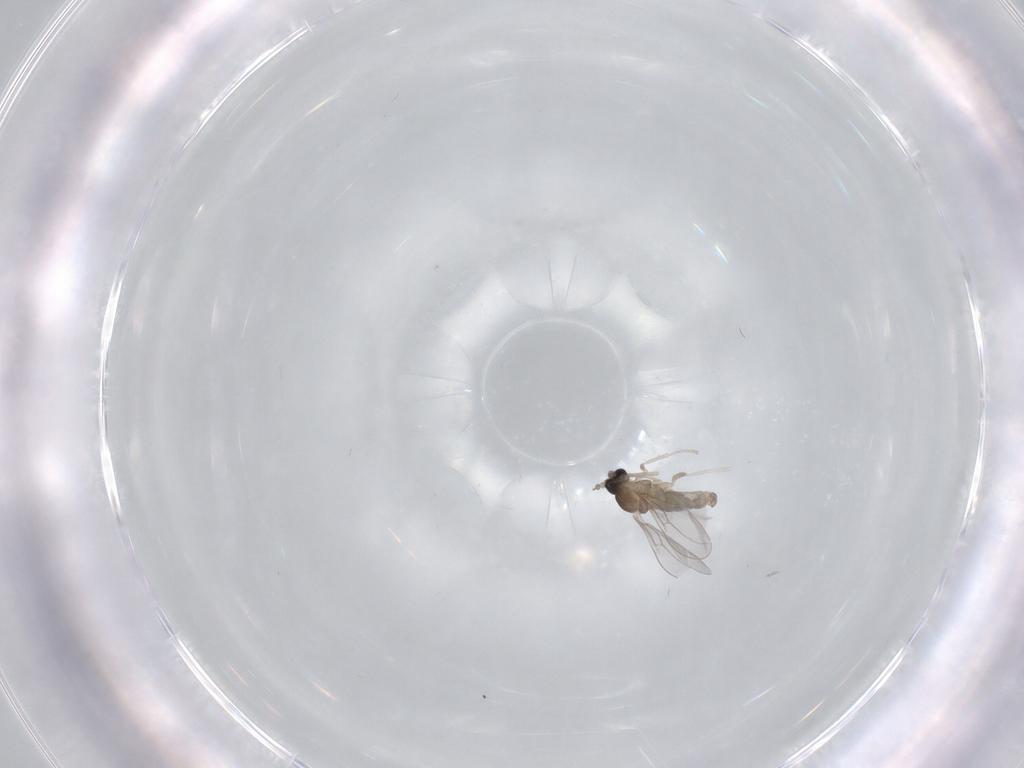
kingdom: Animalia
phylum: Arthropoda
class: Insecta
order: Diptera
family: Cecidomyiidae
